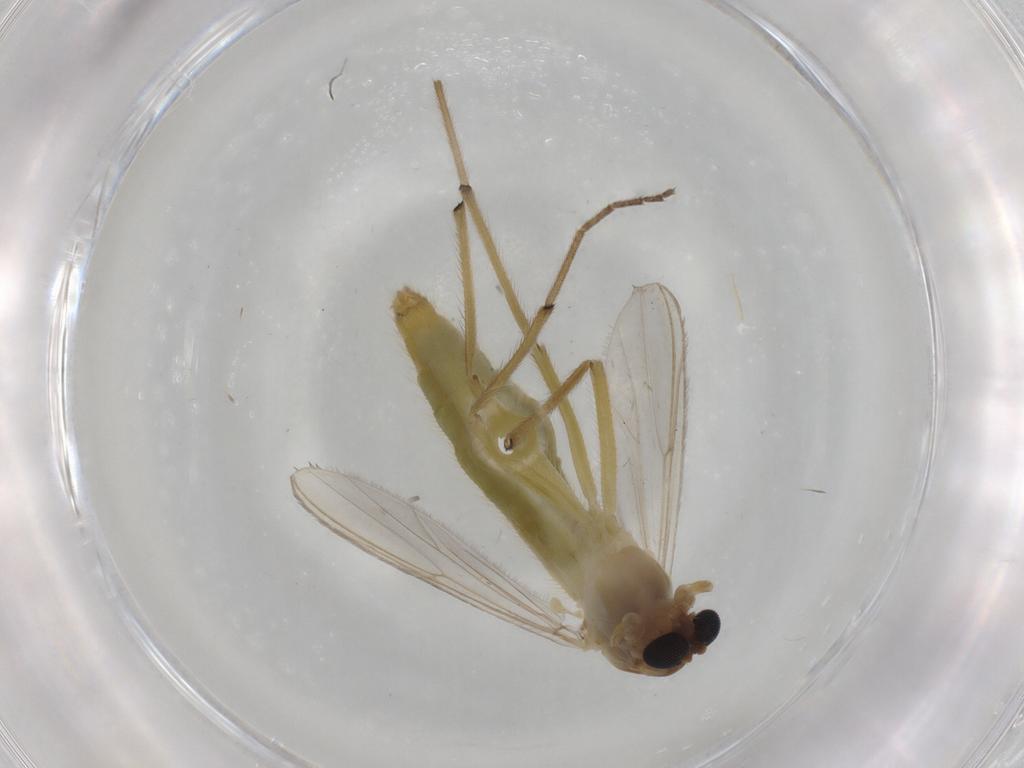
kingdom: Animalia
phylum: Arthropoda
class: Insecta
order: Diptera
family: Chironomidae
